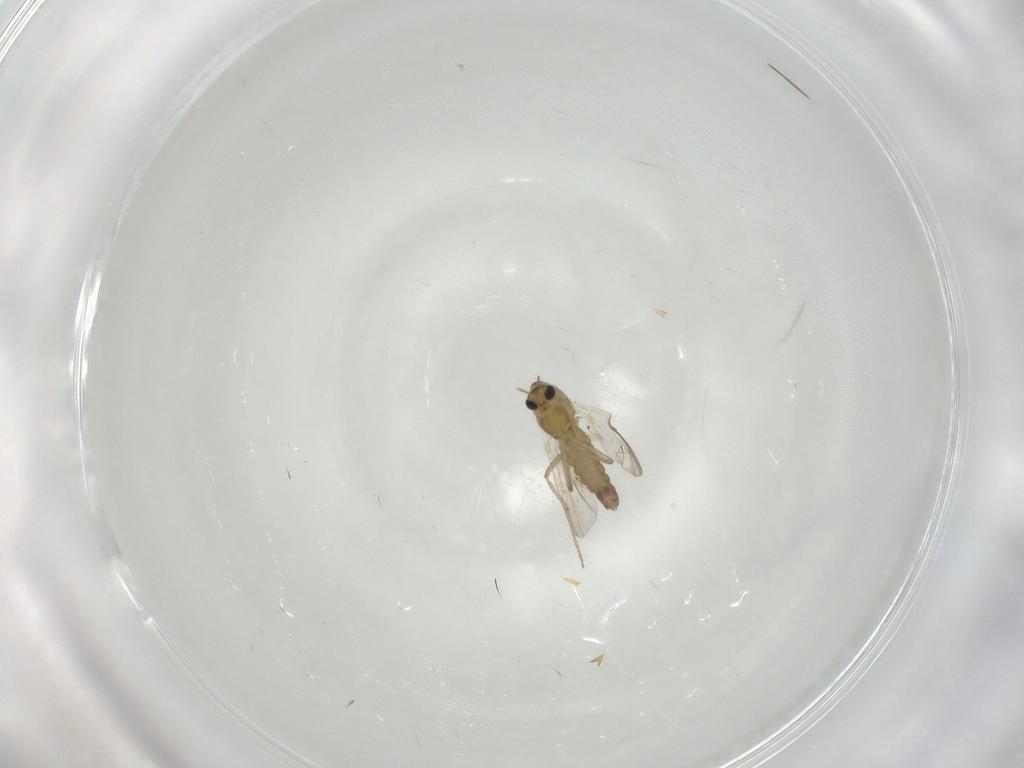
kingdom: Animalia
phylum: Arthropoda
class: Insecta
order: Diptera
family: Chironomidae
